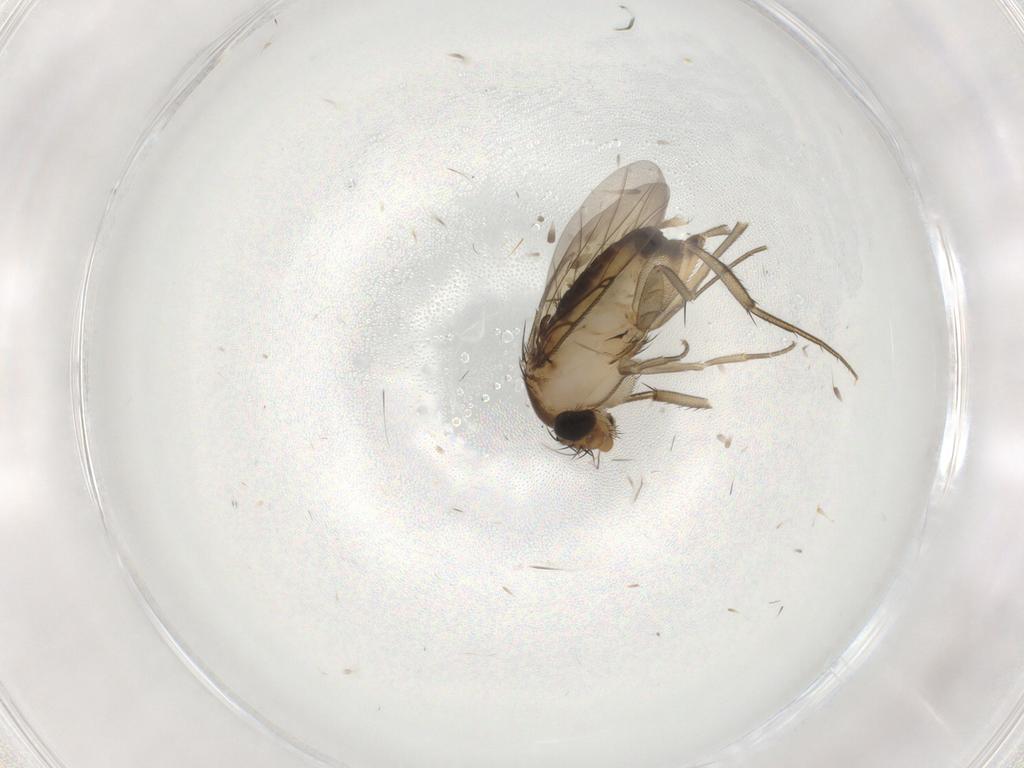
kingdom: Animalia
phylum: Arthropoda
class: Insecta
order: Diptera
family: Phoridae
